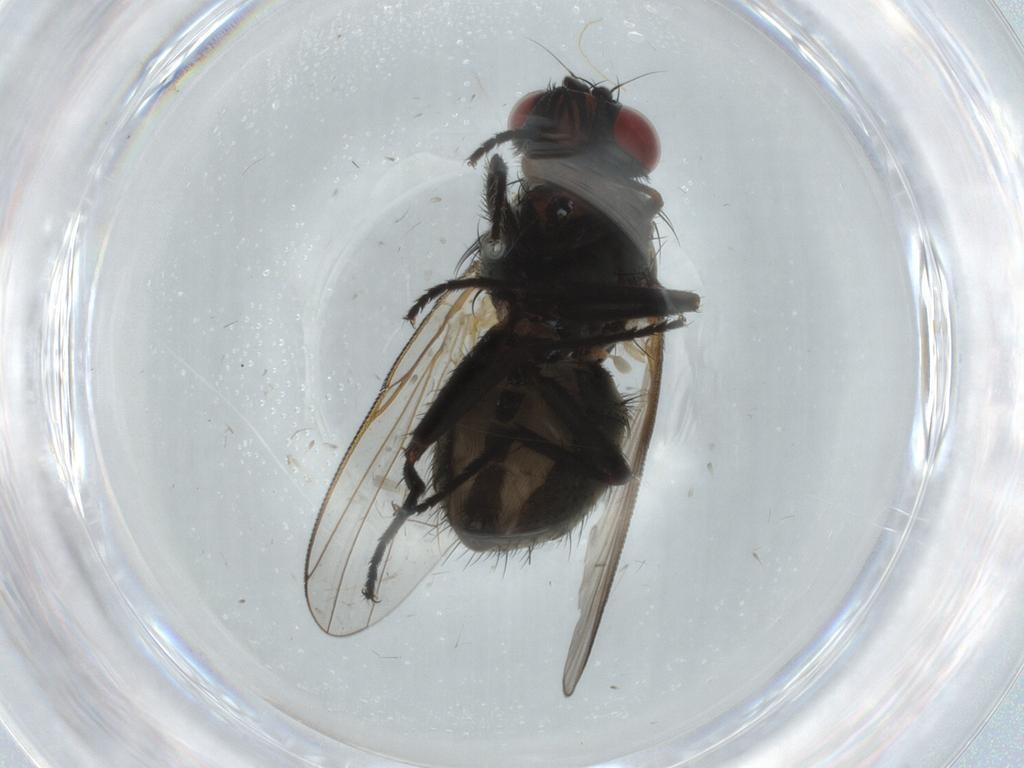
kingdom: Animalia
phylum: Arthropoda
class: Insecta
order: Diptera
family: Muscidae
